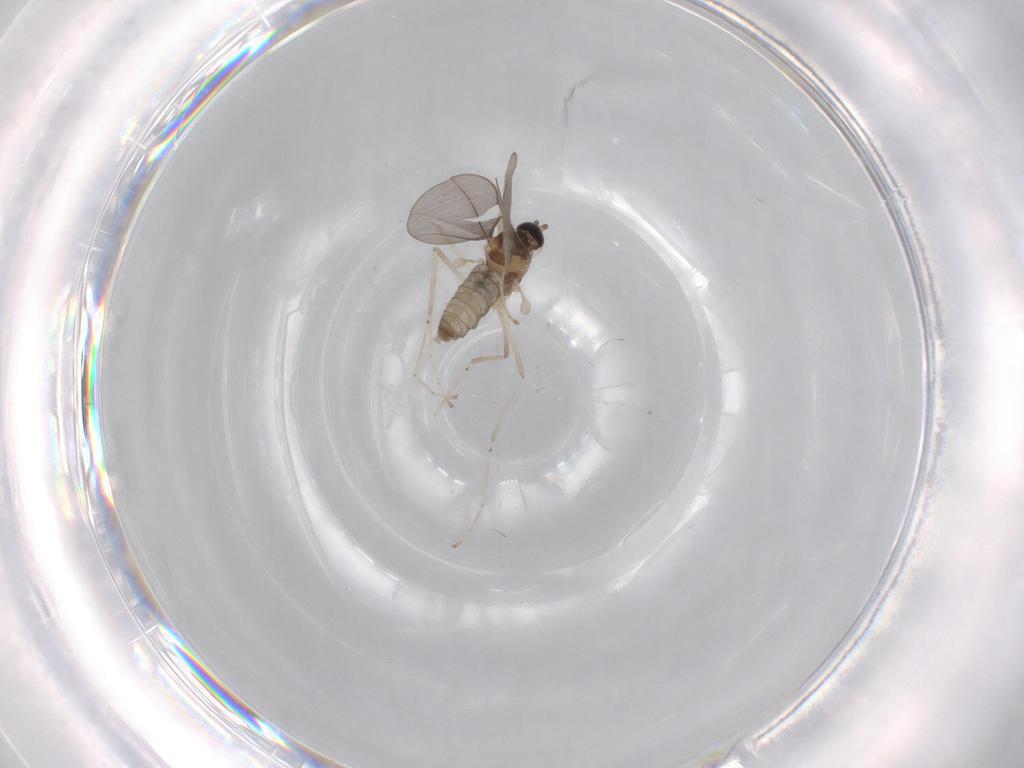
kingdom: Animalia
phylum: Arthropoda
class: Insecta
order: Diptera
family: Cecidomyiidae
